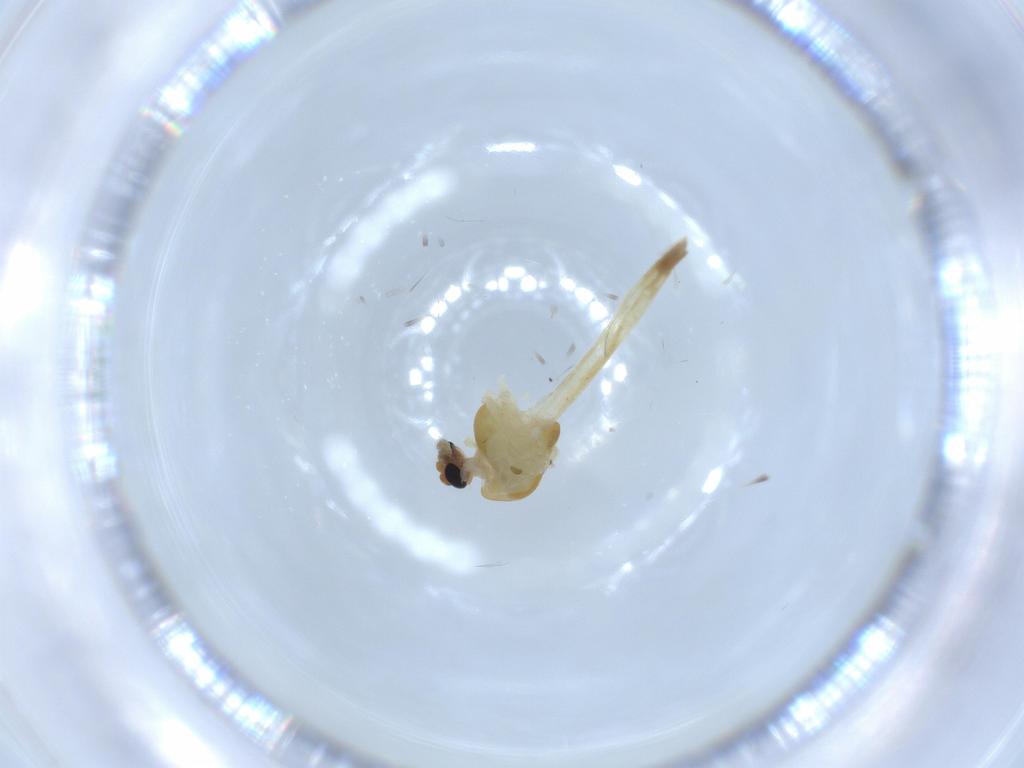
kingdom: Animalia
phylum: Arthropoda
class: Insecta
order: Diptera
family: Chironomidae
